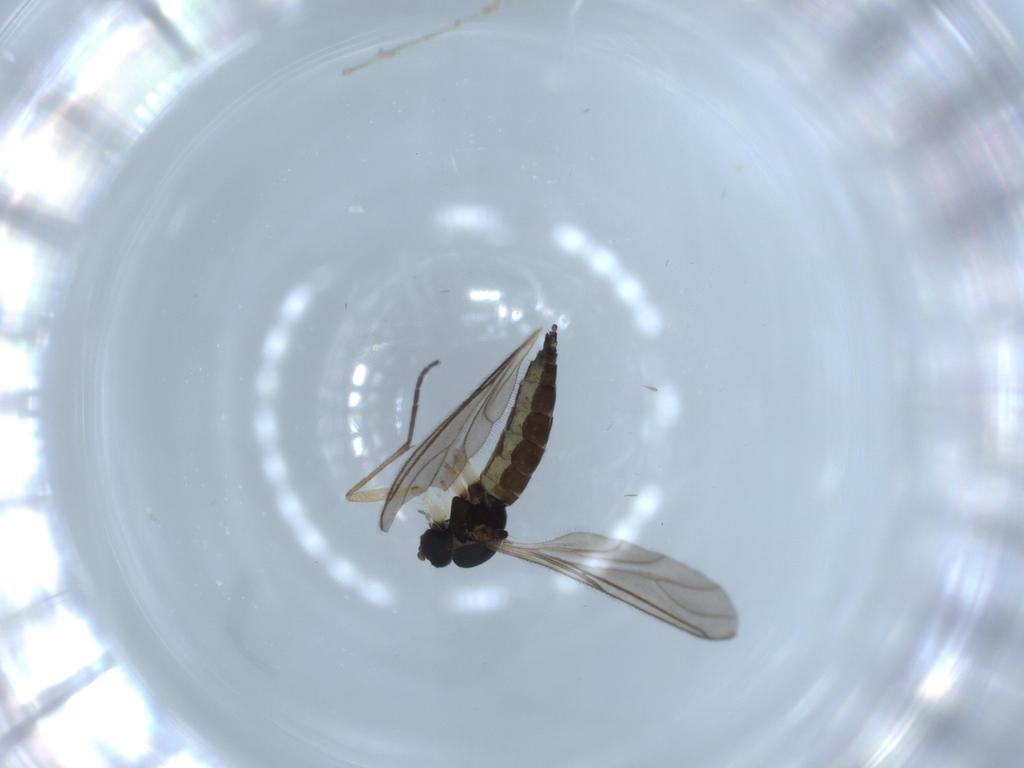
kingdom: Animalia
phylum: Arthropoda
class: Insecta
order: Diptera
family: Sciaridae
